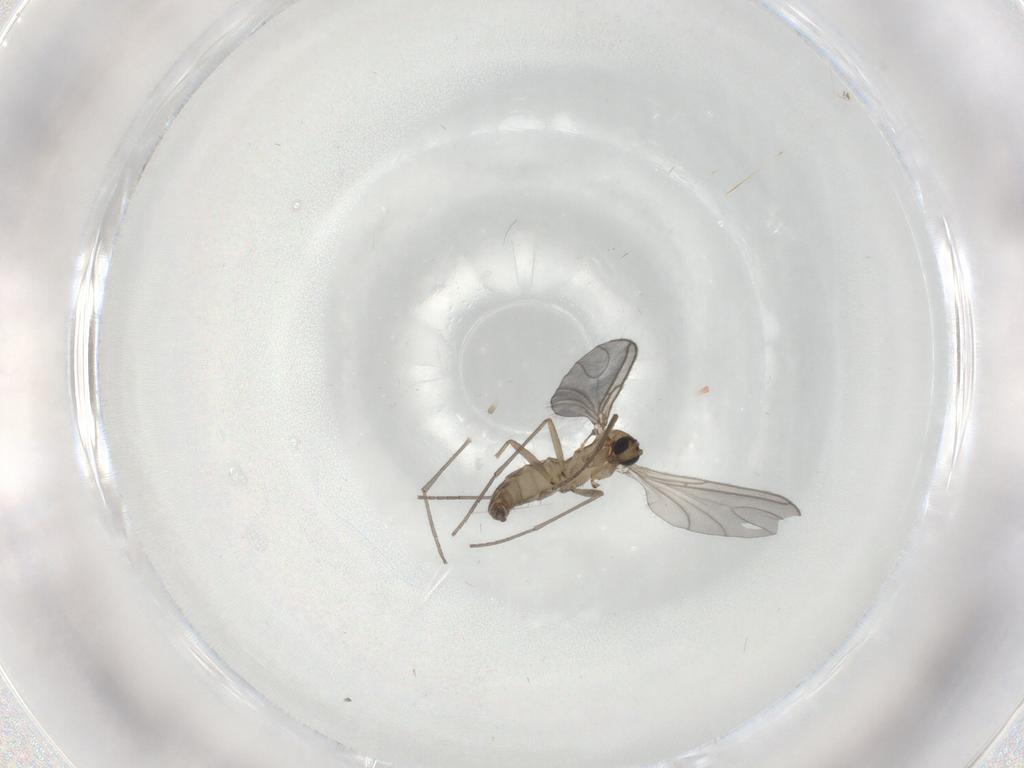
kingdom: Animalia
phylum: Arthropoda
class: Insecta
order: Diptera
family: Sciaridae
